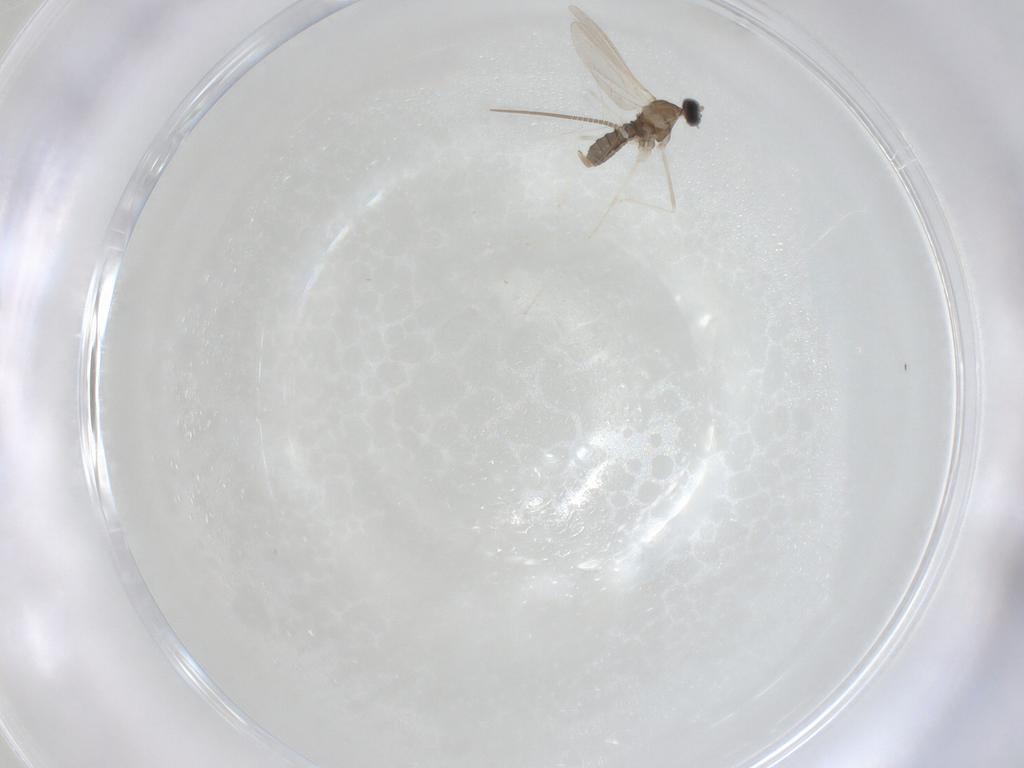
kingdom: Animalia
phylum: Arthropoda
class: Insecta
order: Diptera
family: Cecidomyiidae
